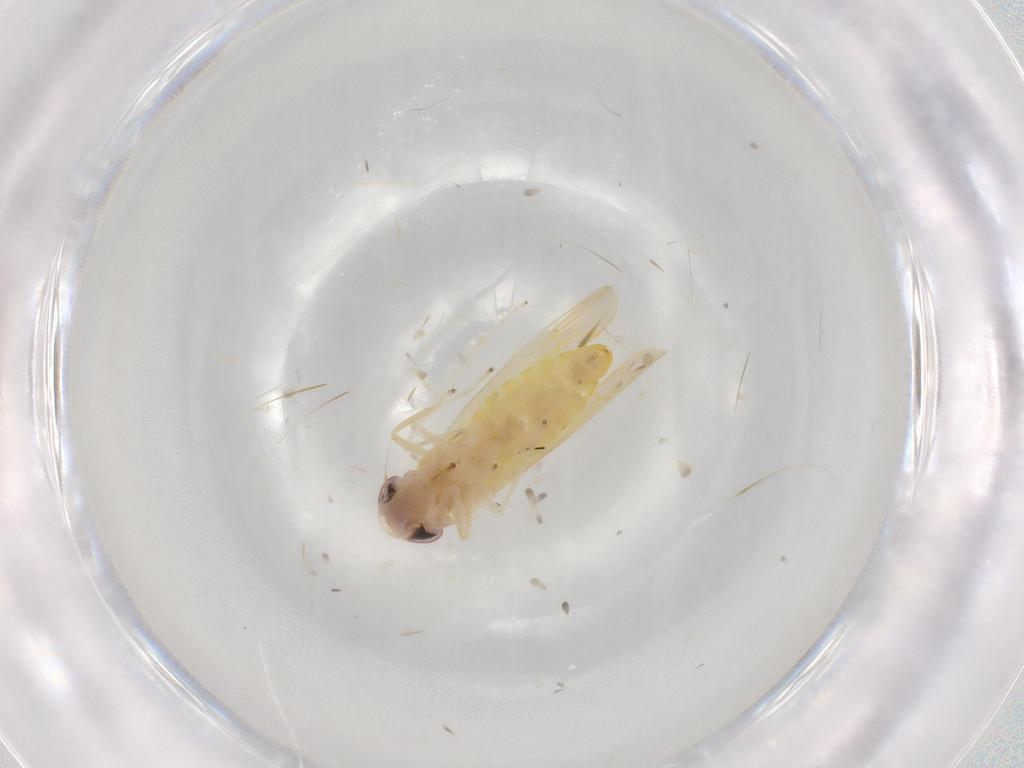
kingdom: Animalia
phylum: Arthropoda
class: Insecta
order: Hemiptera
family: Cicadellidae
